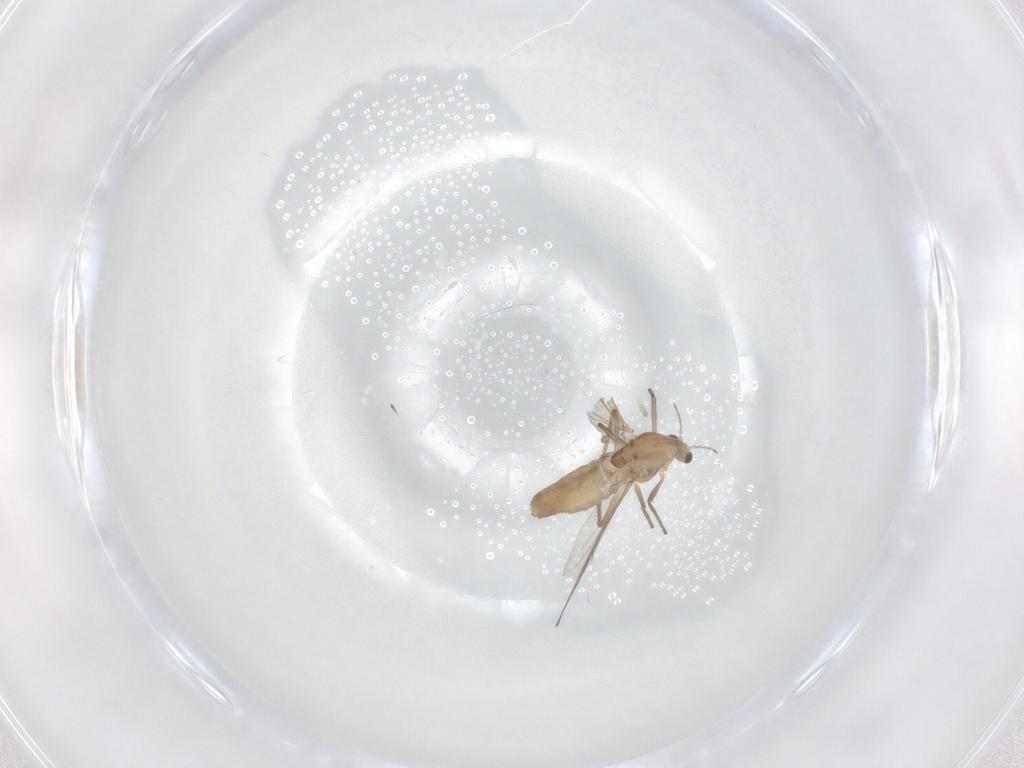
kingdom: Animalia
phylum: Arthropoda
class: Insecta
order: Diptera
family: Chironomidae
